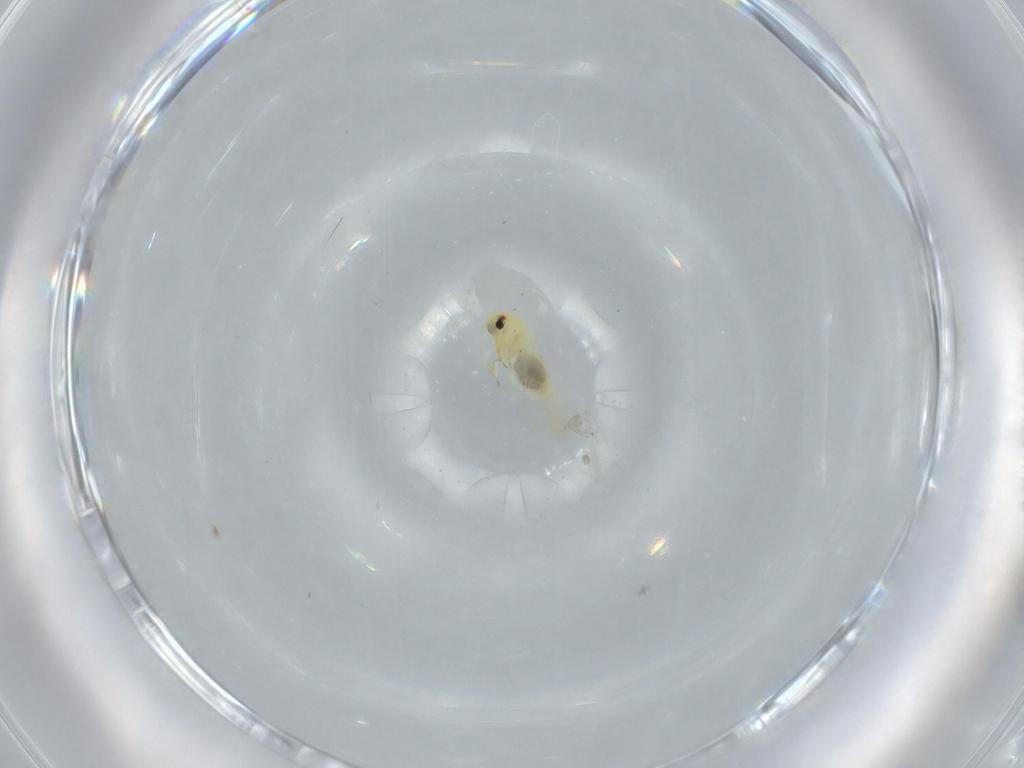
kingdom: Animalia
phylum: Arthropoda
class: Insecta
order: Hemiptera
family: Aleyrodidae
